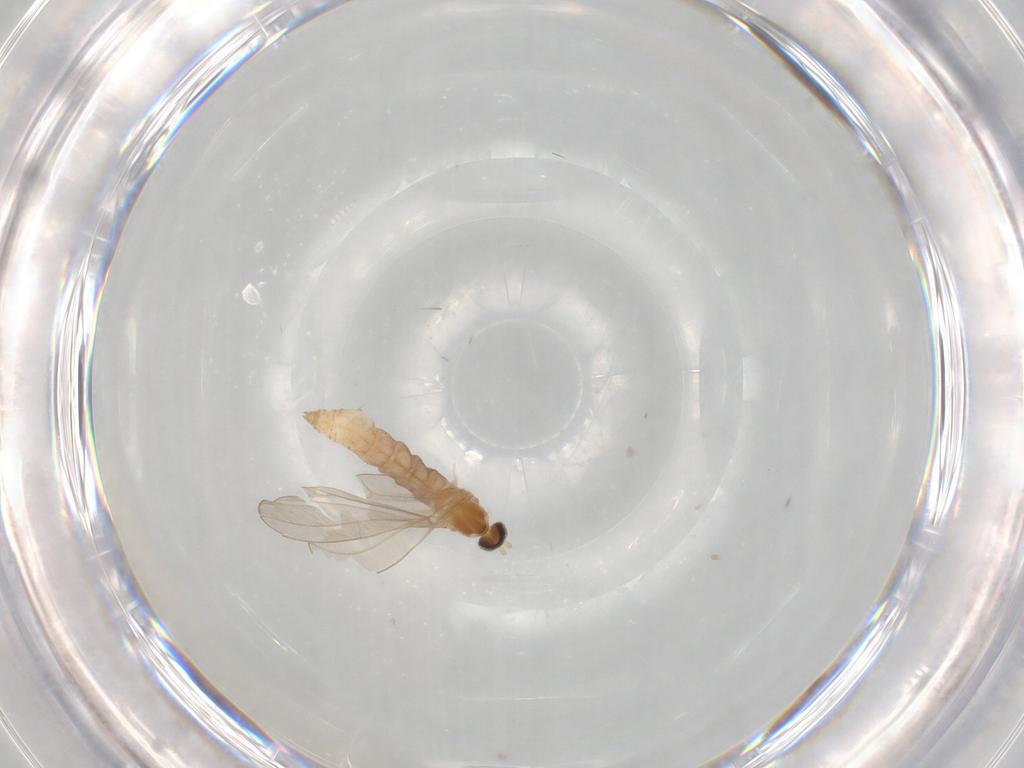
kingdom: Animalia
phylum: Arthropoda
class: Insecta
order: Diptera
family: Cecidomyiidae
